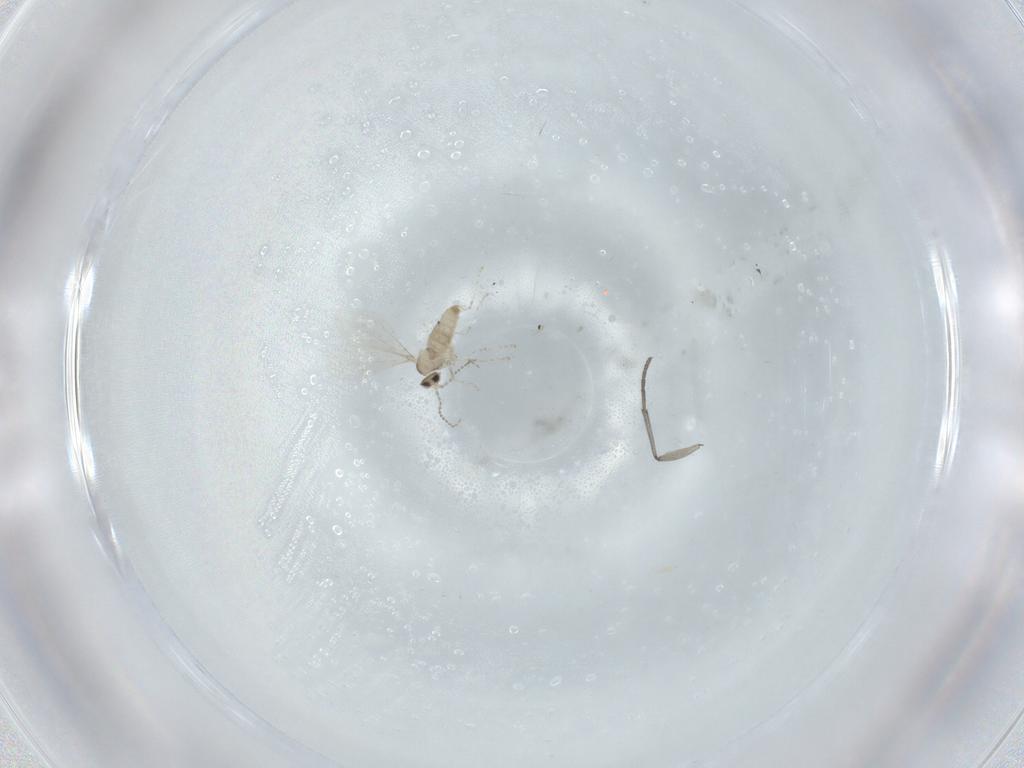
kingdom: Animalia
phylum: Arthropoda
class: Insecta
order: Diptera
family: Cecidomyiidae
